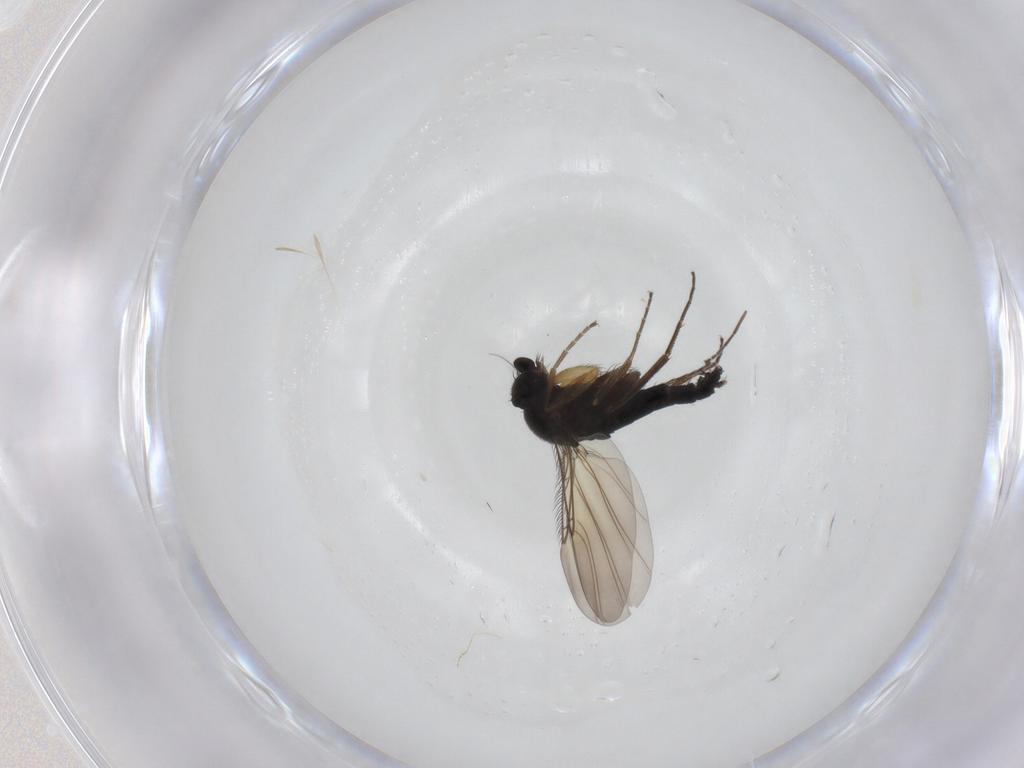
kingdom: Animalia
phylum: Arthropoda
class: Insecta
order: Diptera
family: Phoridae
